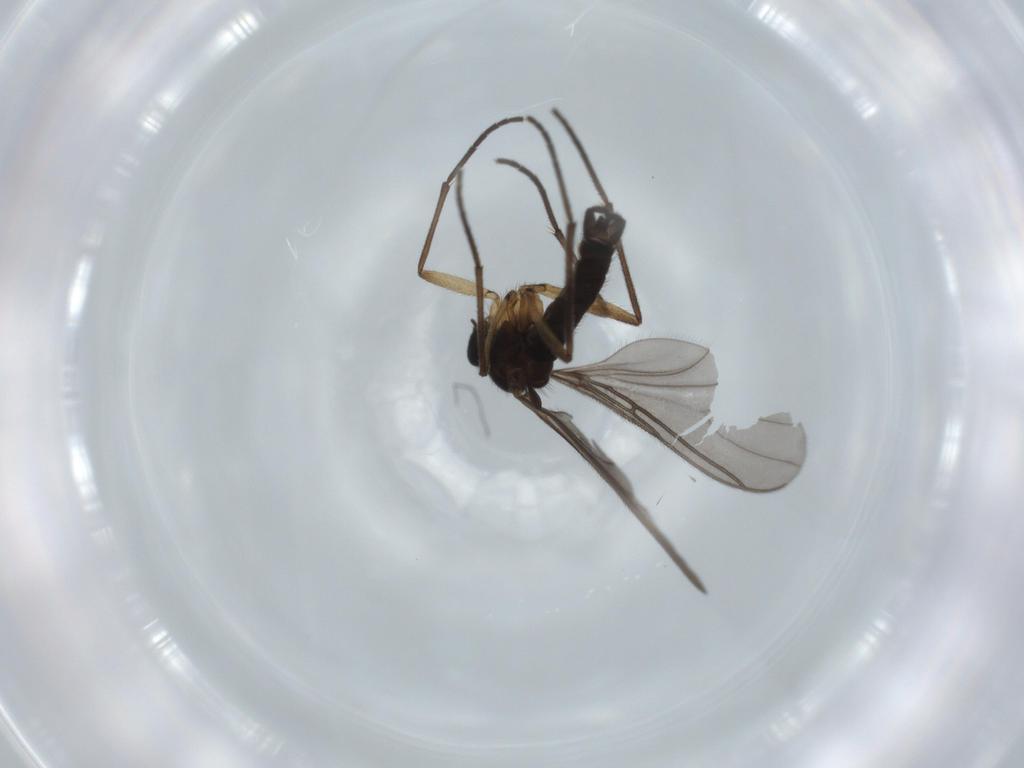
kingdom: Animalia
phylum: Arthropoda
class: Insecta
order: Diptera
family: Sciaridae
